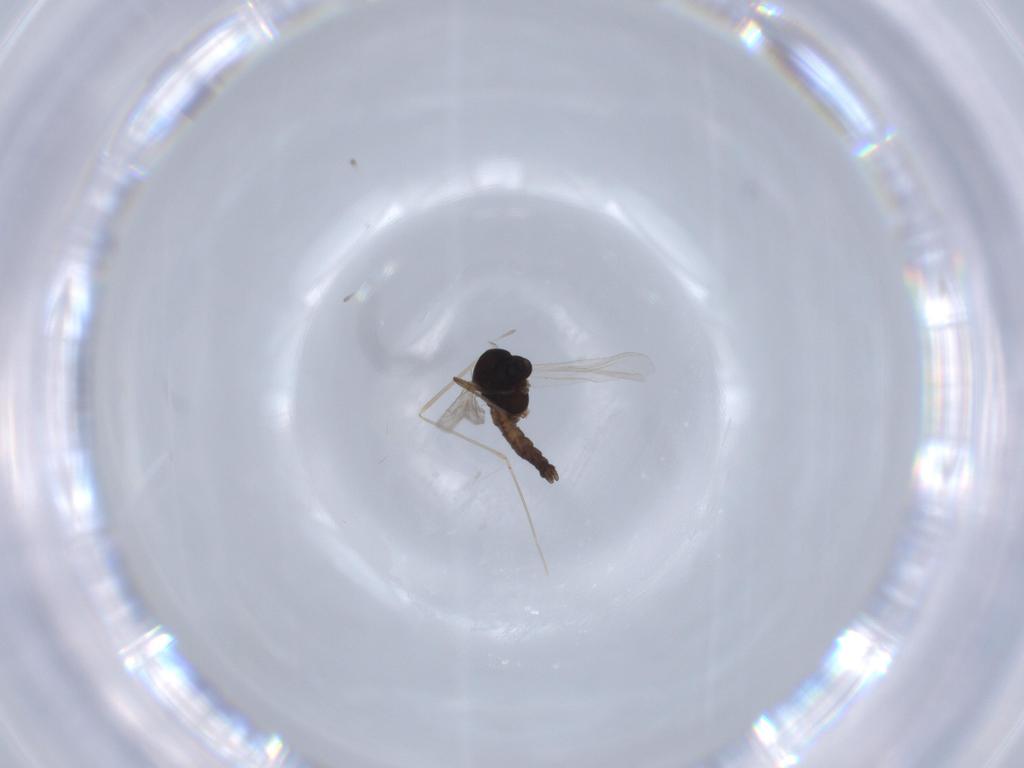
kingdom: Animalia
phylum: Arthropoda
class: Insecta
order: Diptera
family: Chironomidae
